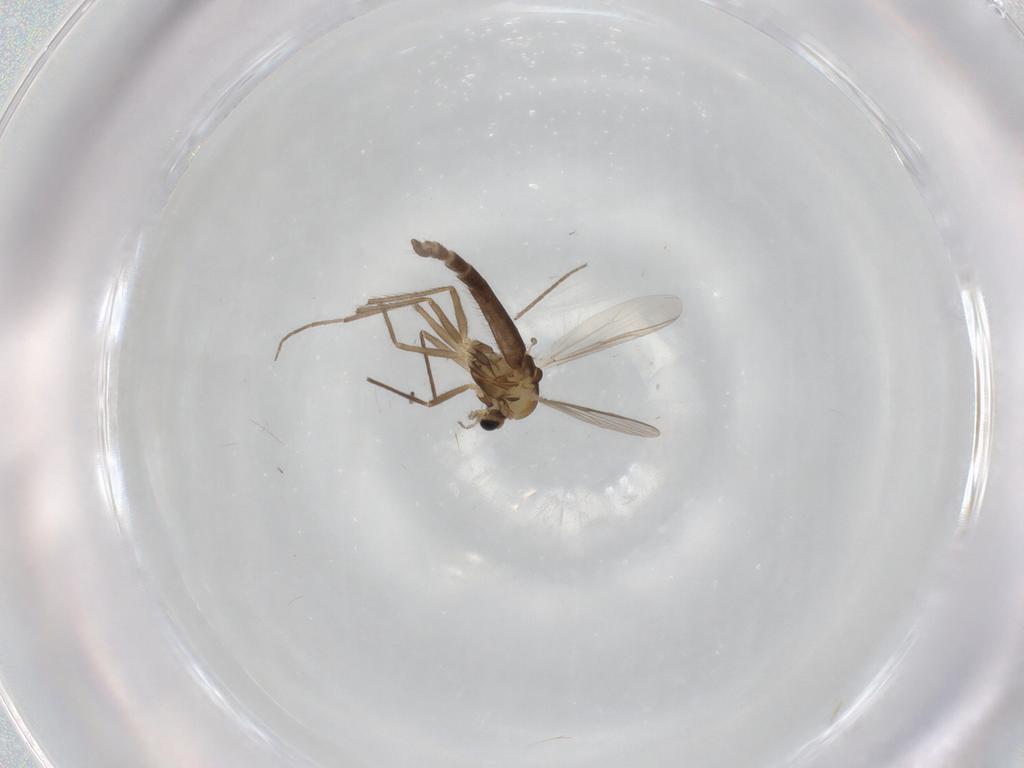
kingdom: Animalia
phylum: Arthropoda
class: Insecta
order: Diptera
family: Chironomidae
